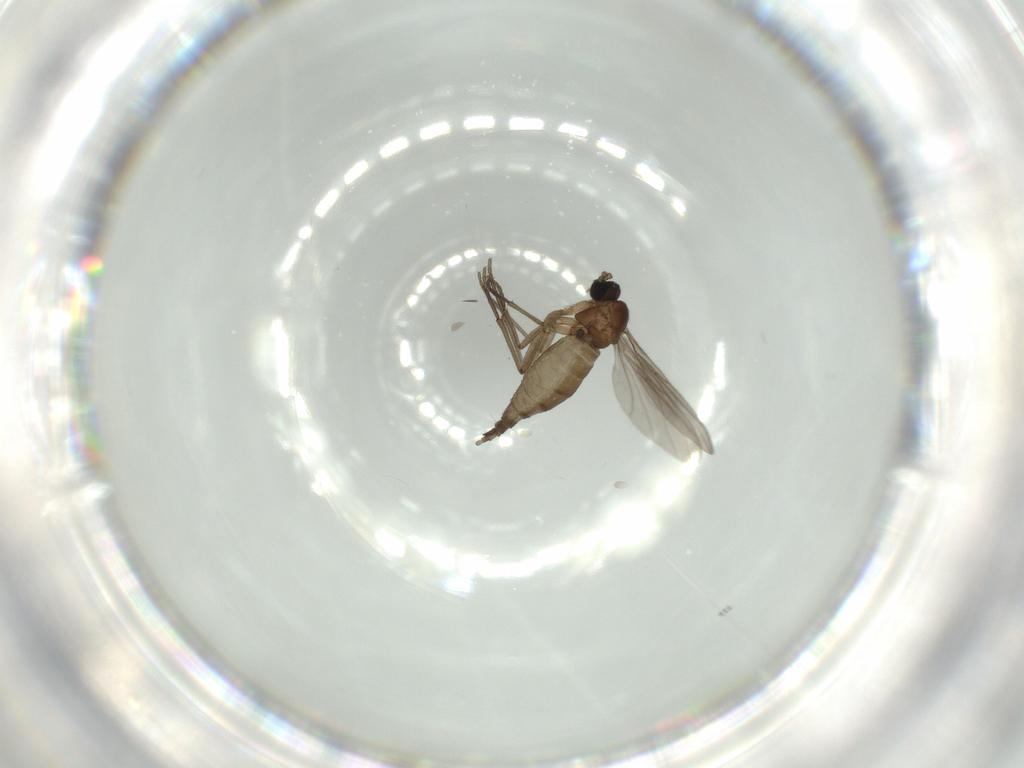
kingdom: Animalia
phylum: Arthropoda
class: Insecta
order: Diptera
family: Sciaridae
